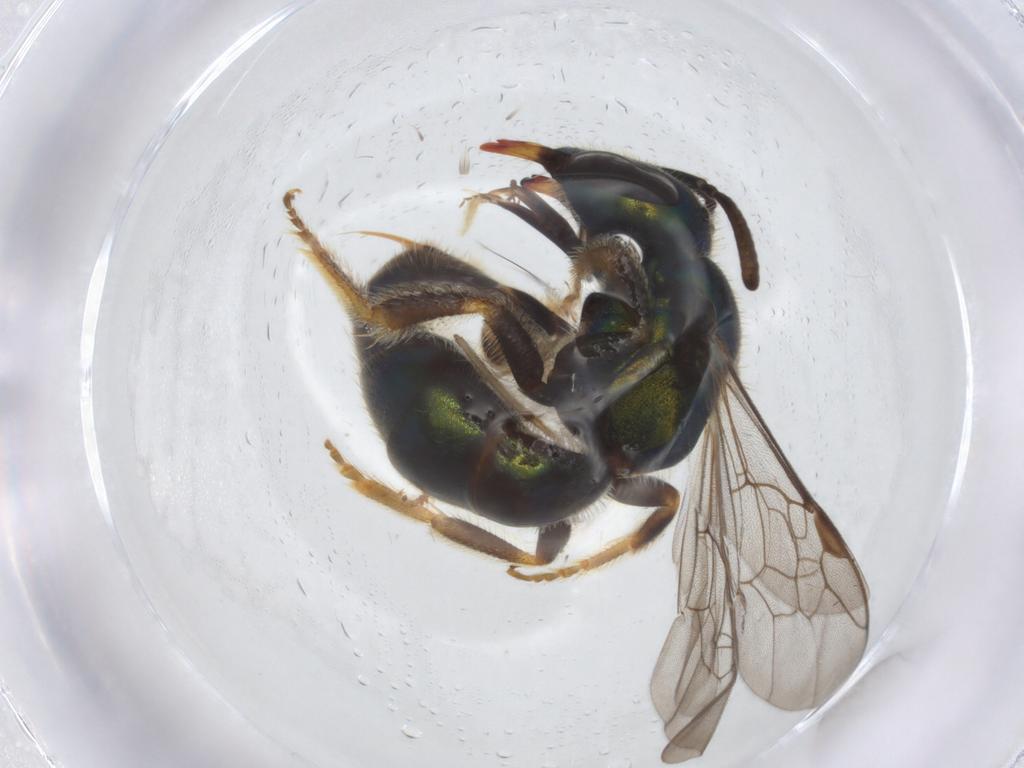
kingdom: Animalia
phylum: Arthropoda
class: Insecta
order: Hymenoptera
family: Halictidae
